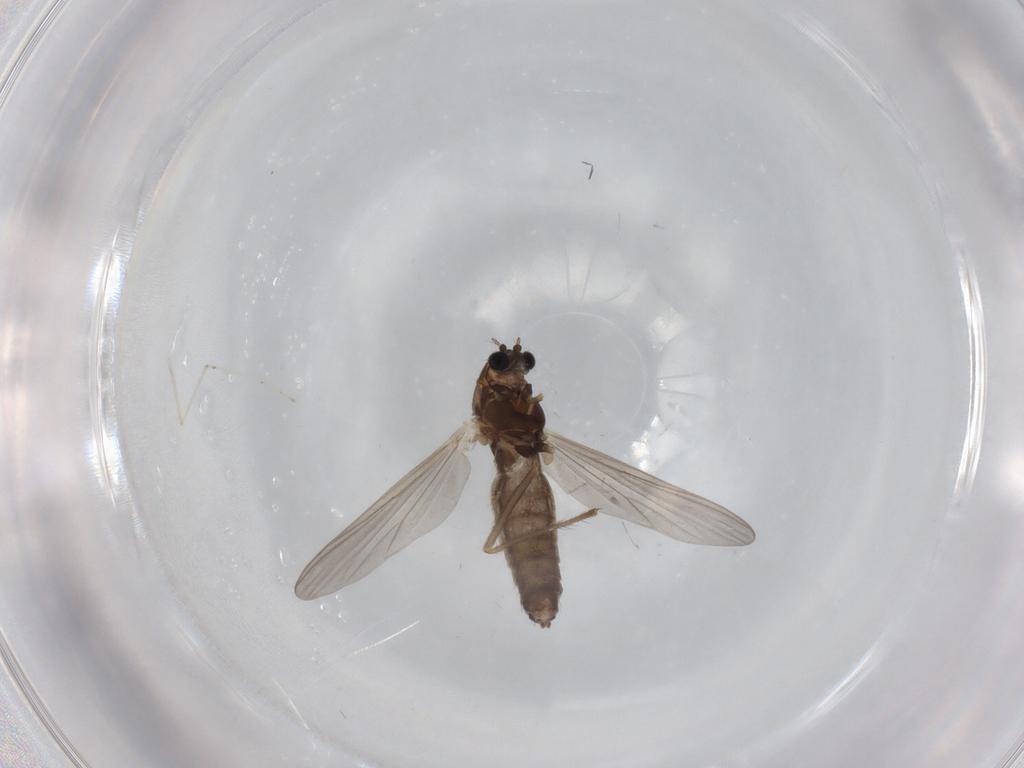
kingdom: Animalia
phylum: Arthropoda
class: Insecta
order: Diptera
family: Chironomidae
